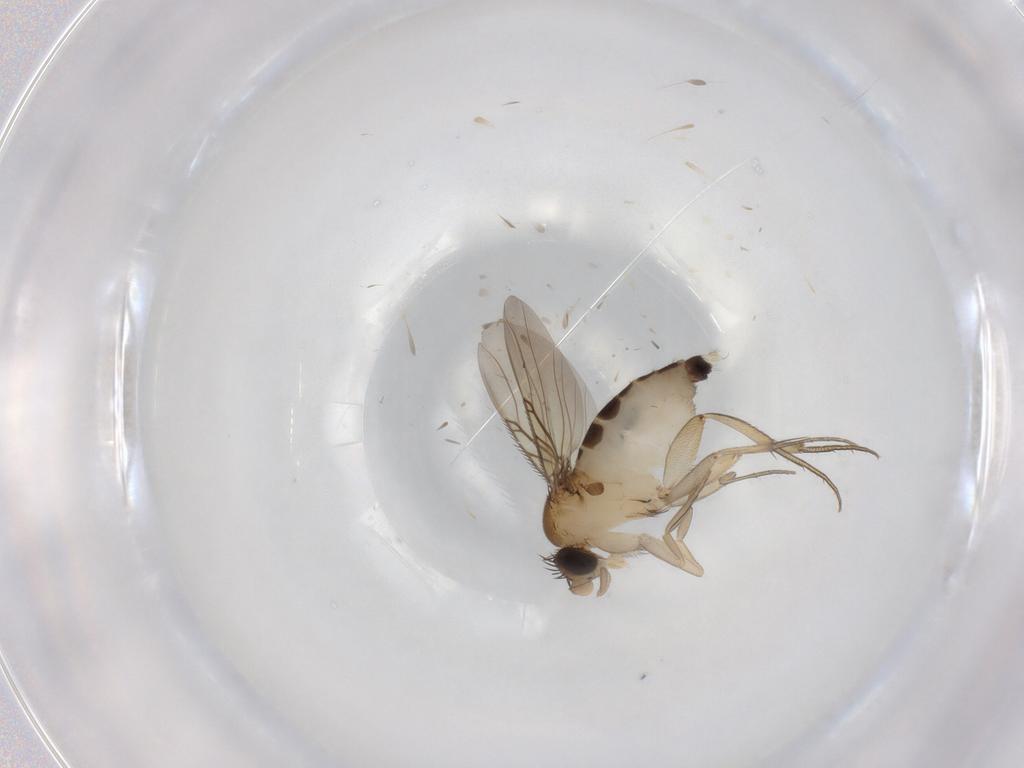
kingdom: Animalia
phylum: Arthropoda
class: Insecta
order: Diptera
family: Phoridae
